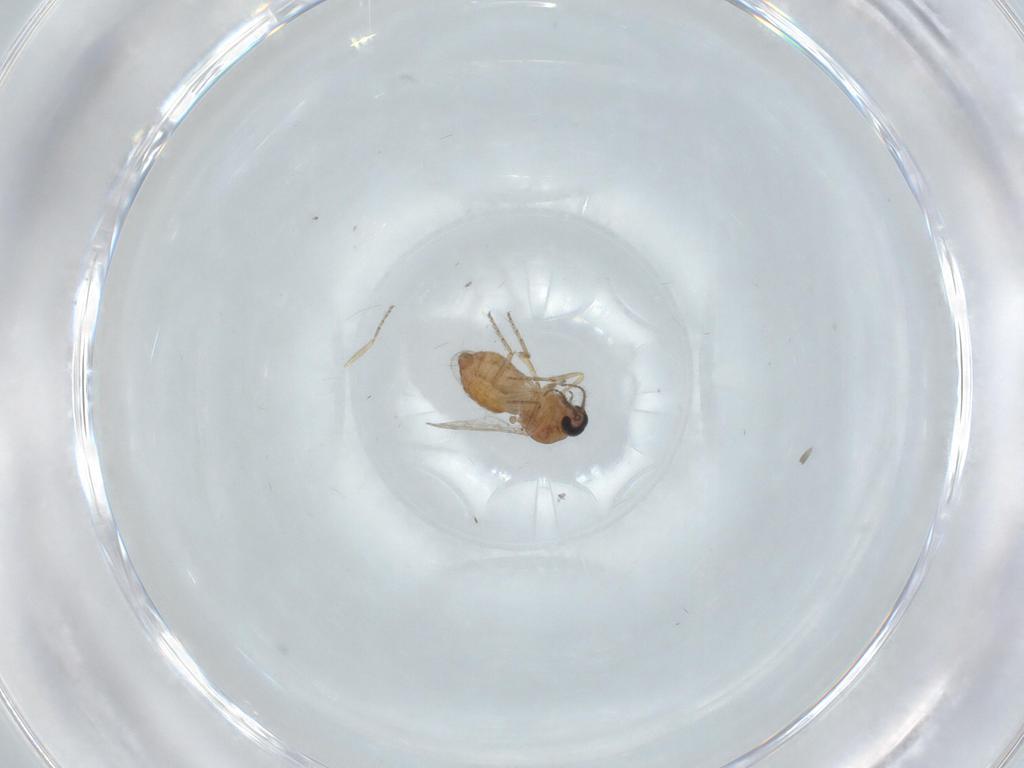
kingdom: Animalia
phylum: Arthropoda
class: Insecta
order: Diptera
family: Ceratopogonidae
